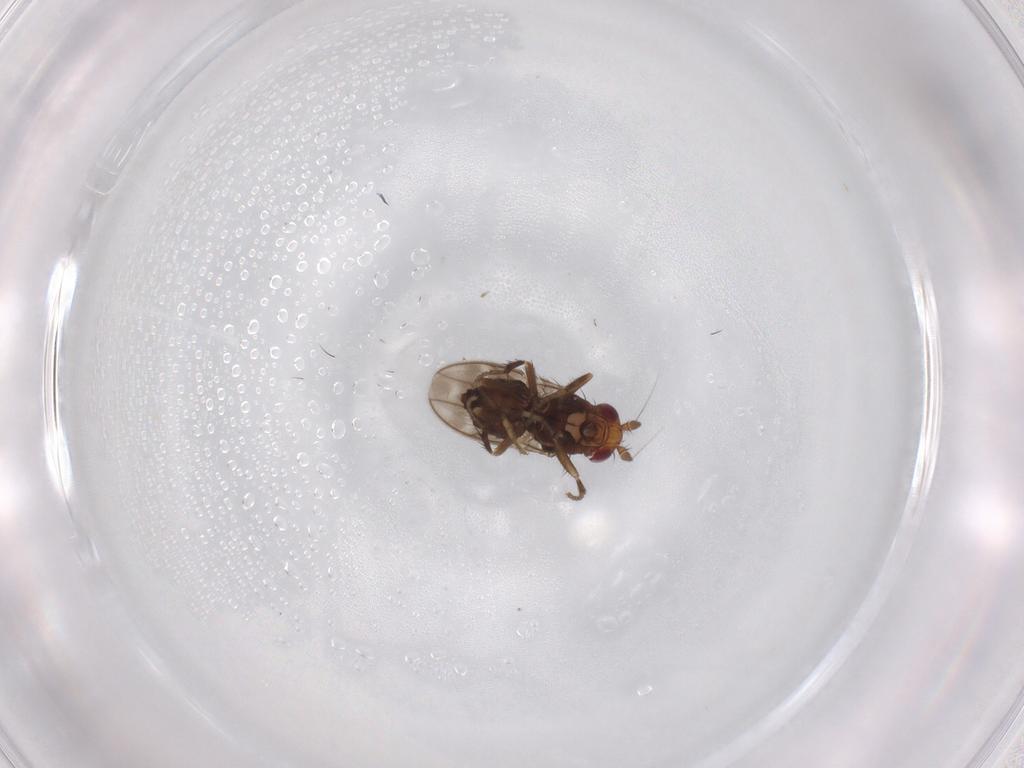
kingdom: Animalia
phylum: Arthropoda
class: Insecta
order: Diptera
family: Sphaeroceridae
